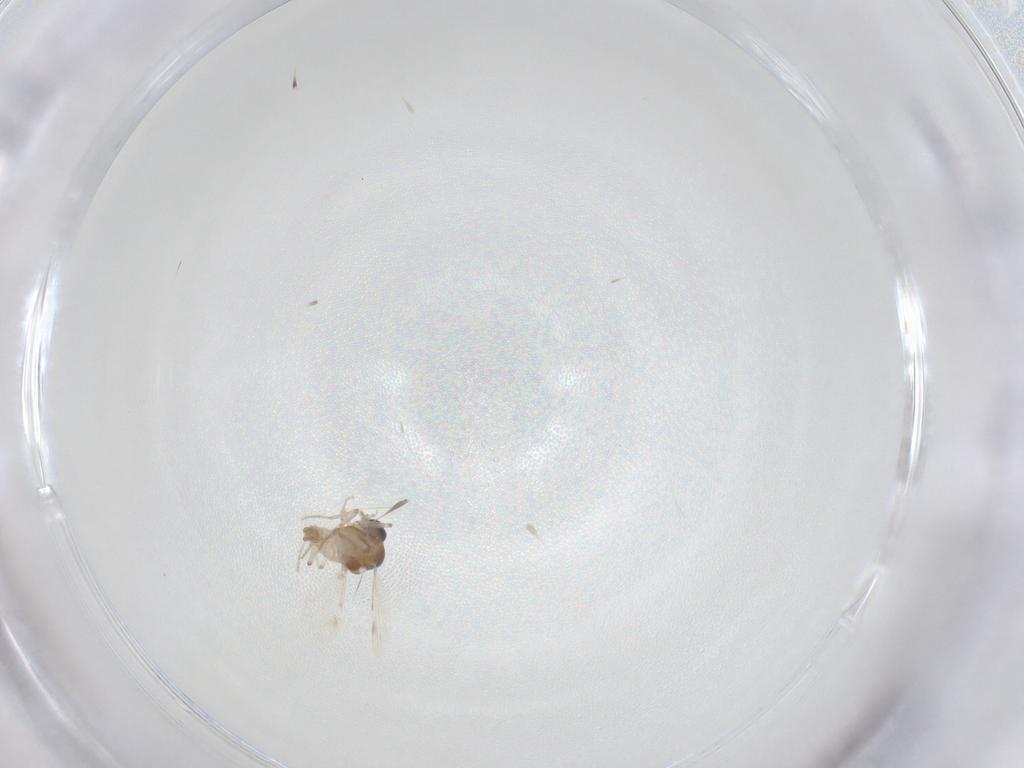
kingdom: Animalia
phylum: Arthropoda
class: Insecta
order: Diptera
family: Ceratopogonidae
